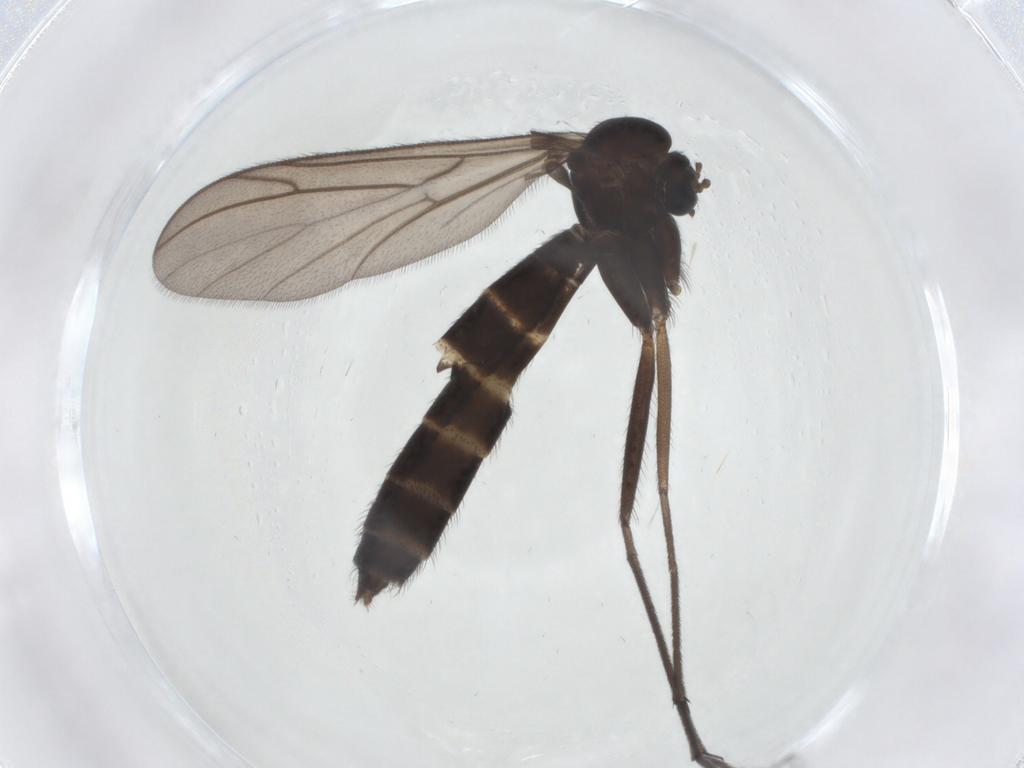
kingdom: Animalia
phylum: Arthropoda
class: Insecta
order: Diptera
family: Ditomyiidae
